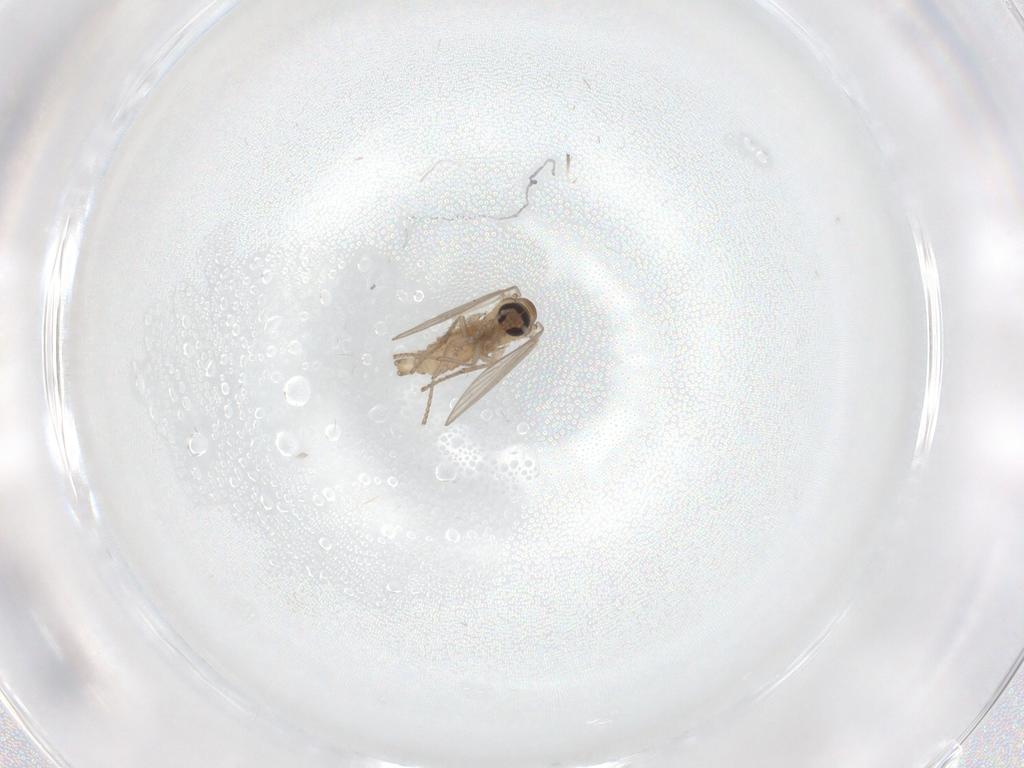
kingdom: Animalia
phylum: Arthropoda
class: Insecta
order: Diptera
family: Psychodidae
